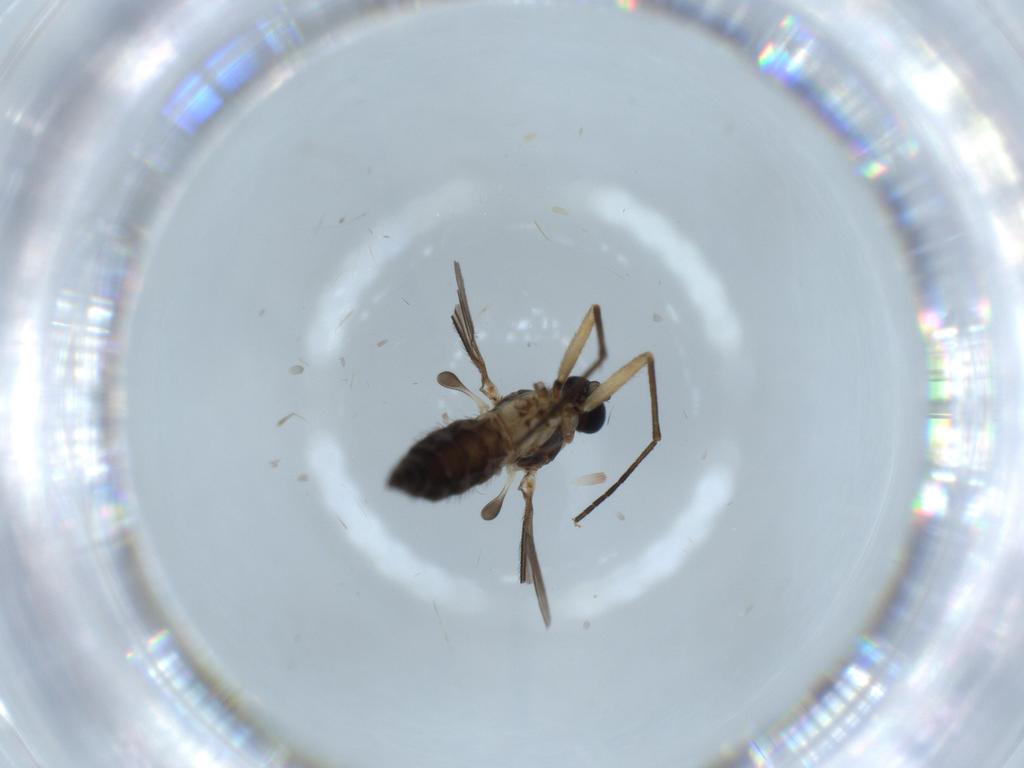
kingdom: Animalia
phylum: Arthropoda
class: Insecta
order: Diptera
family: Sciaridae
